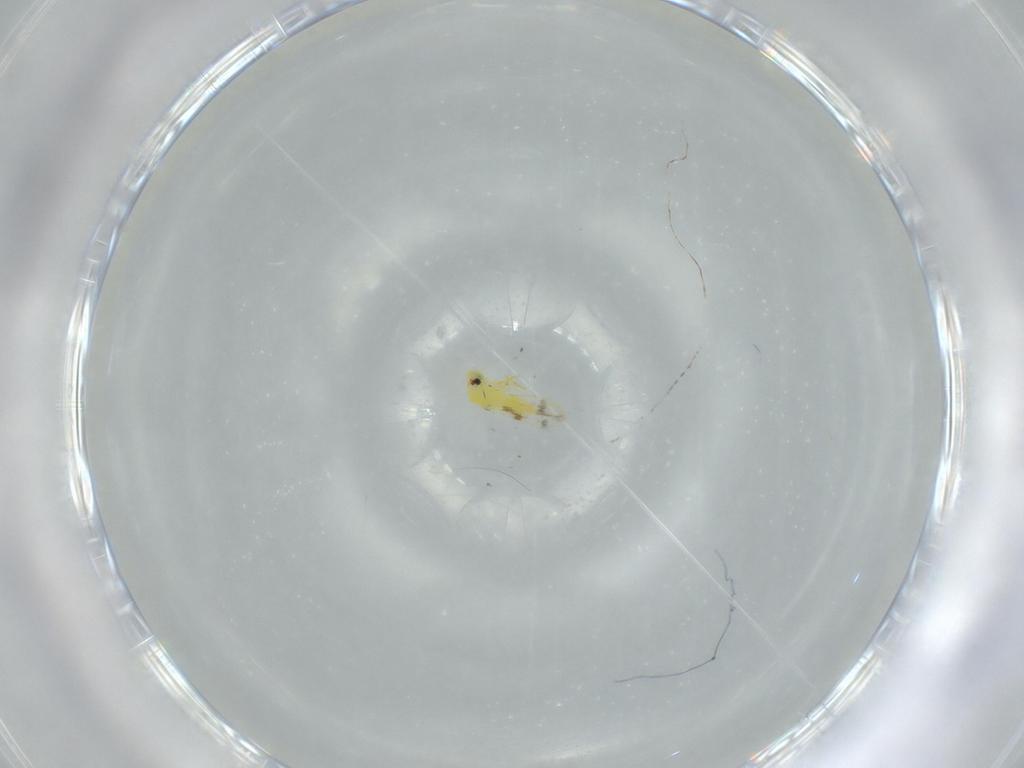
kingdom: Animalia
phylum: Arthropoda
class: Insecta
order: Hemiptera
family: Aleyrodidae
